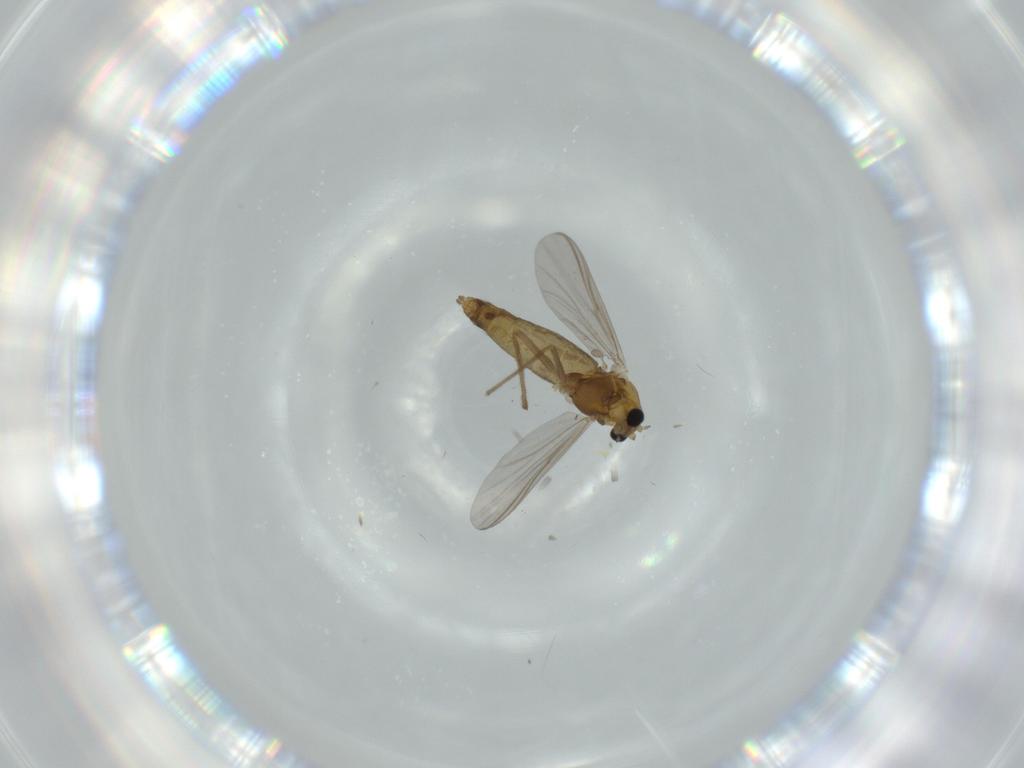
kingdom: Animalia
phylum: Arthropoda
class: Insecta
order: Diptera
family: Chironomidae
